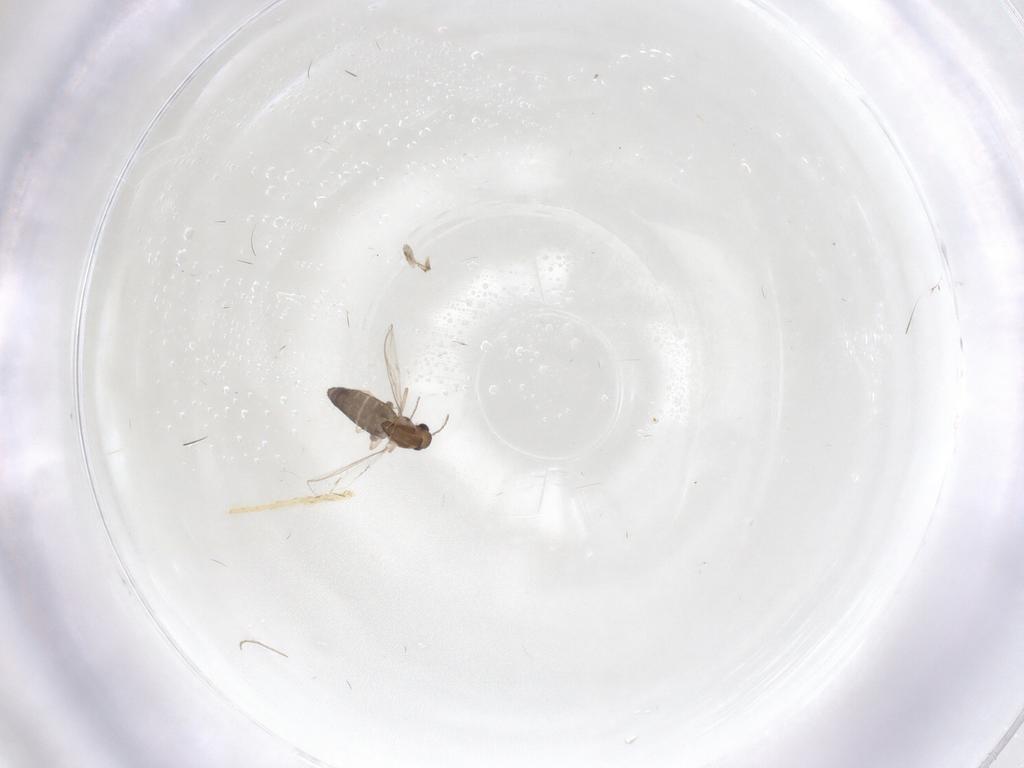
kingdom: Animalia
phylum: Arthropoda
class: Insecta
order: Diptera
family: Chironomidae
